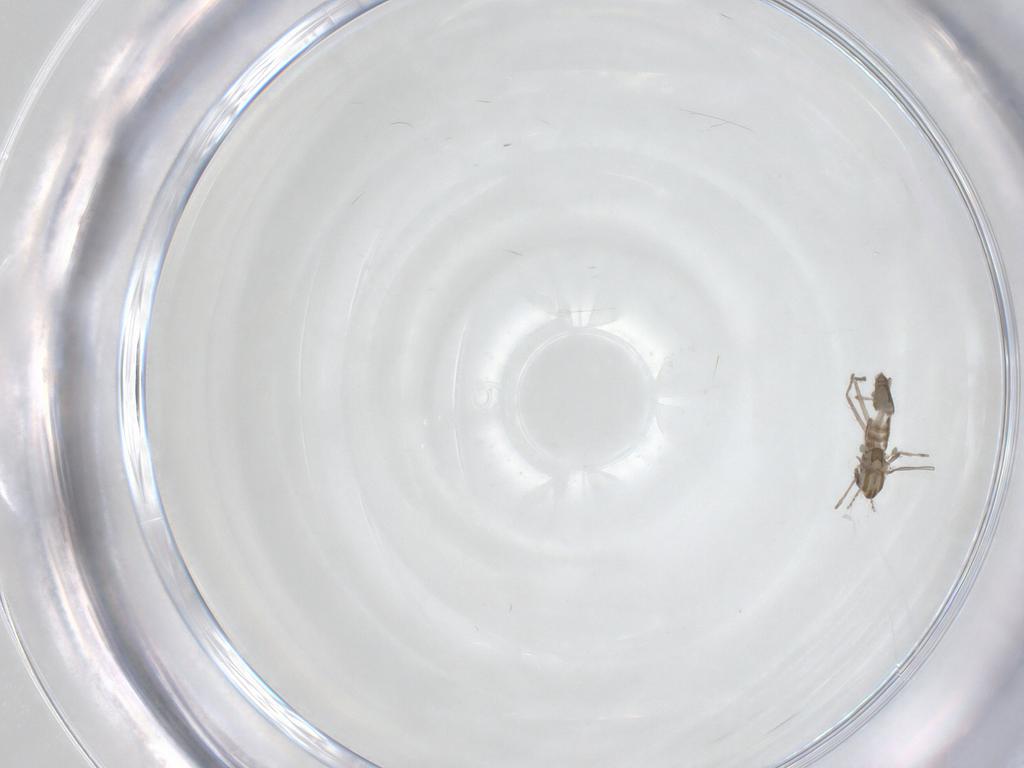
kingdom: Animalia
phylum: Arthropoda
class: Insecta
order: Diptera
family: Chironomidae
